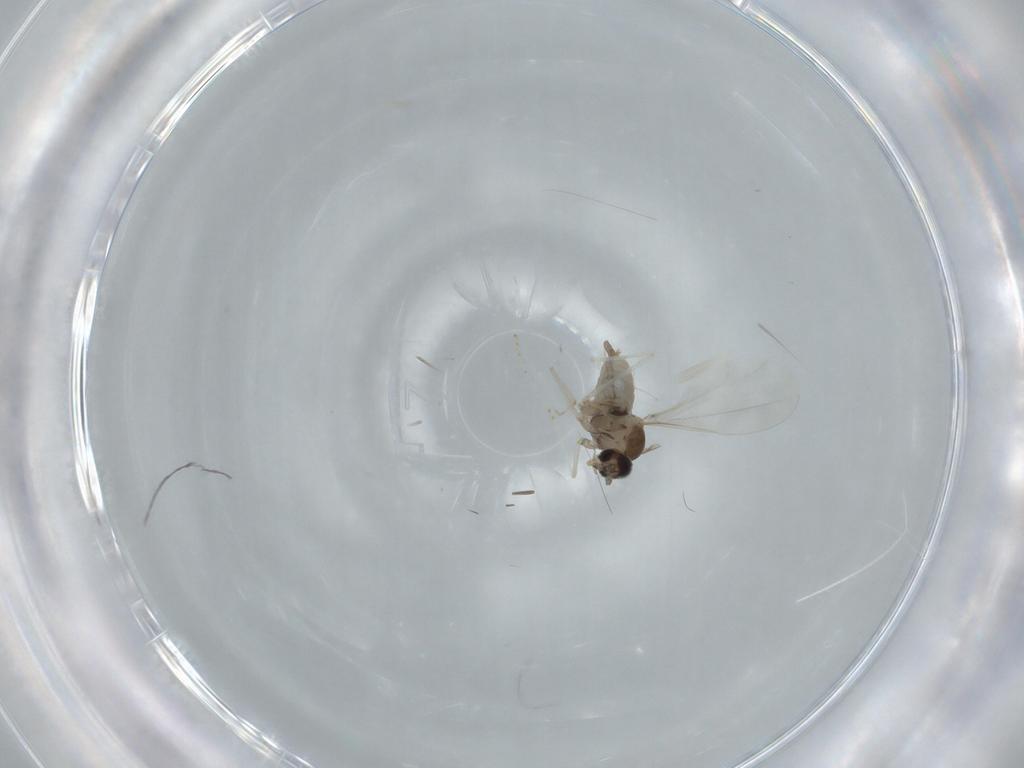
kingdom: Animalia
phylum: Arthropoda
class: Insecta
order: Diptera
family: Cecidomyiidae
